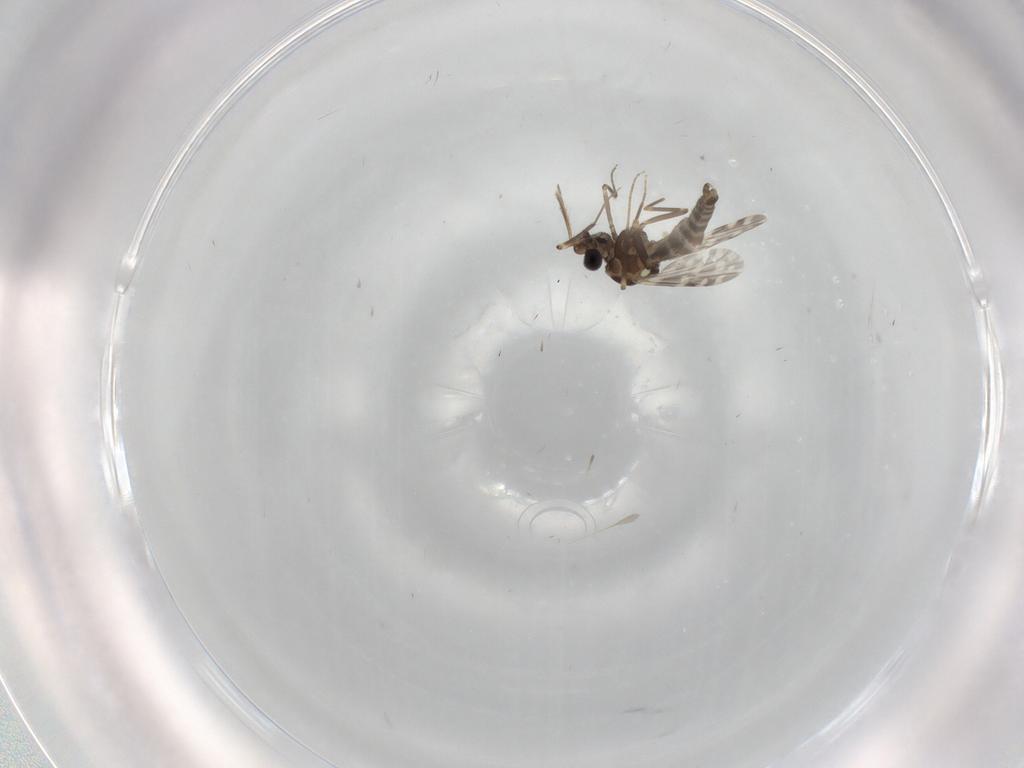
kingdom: Animalia
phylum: Arthropoda
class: Insecta
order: Diptera
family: Phoridae
